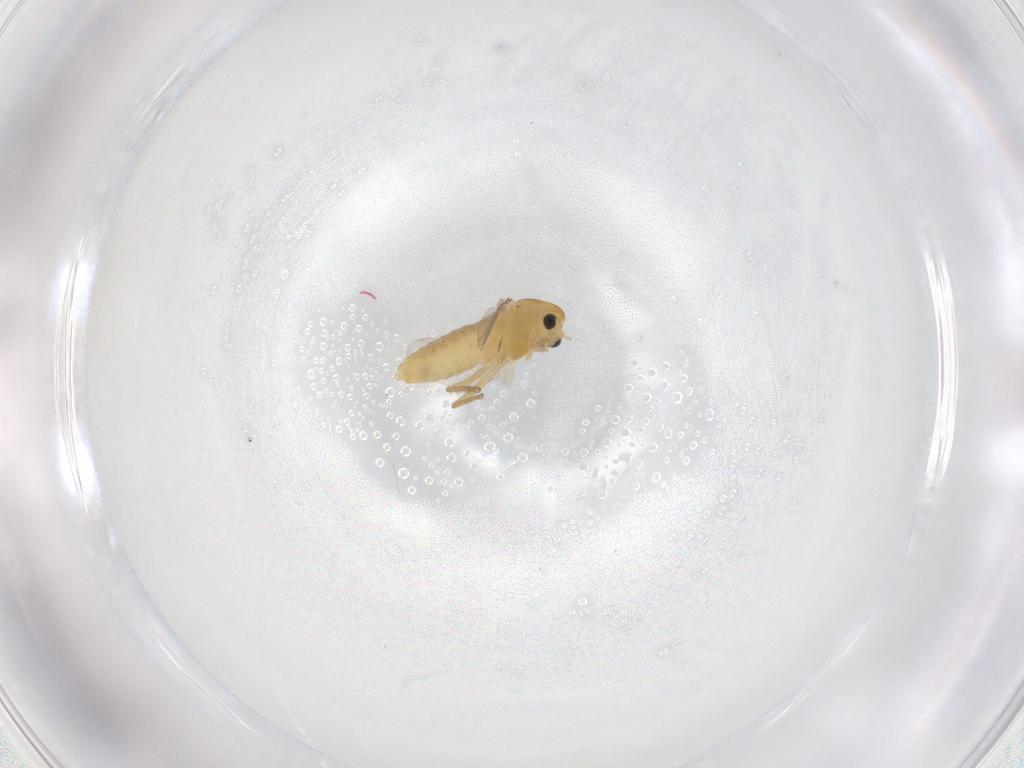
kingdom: Animalia
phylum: Arthropoda
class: Insecta
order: Diptera
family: Chironomidae
